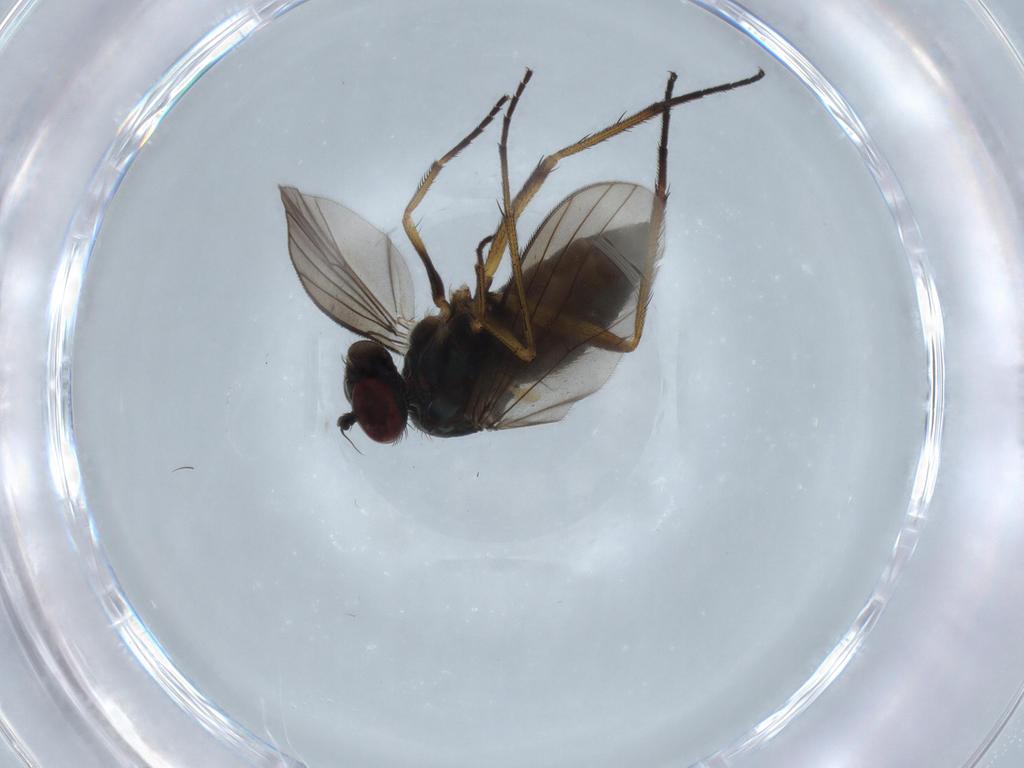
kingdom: Animalia
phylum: Arthropoda
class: Insecta
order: Diptera
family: Dolichopodidae
